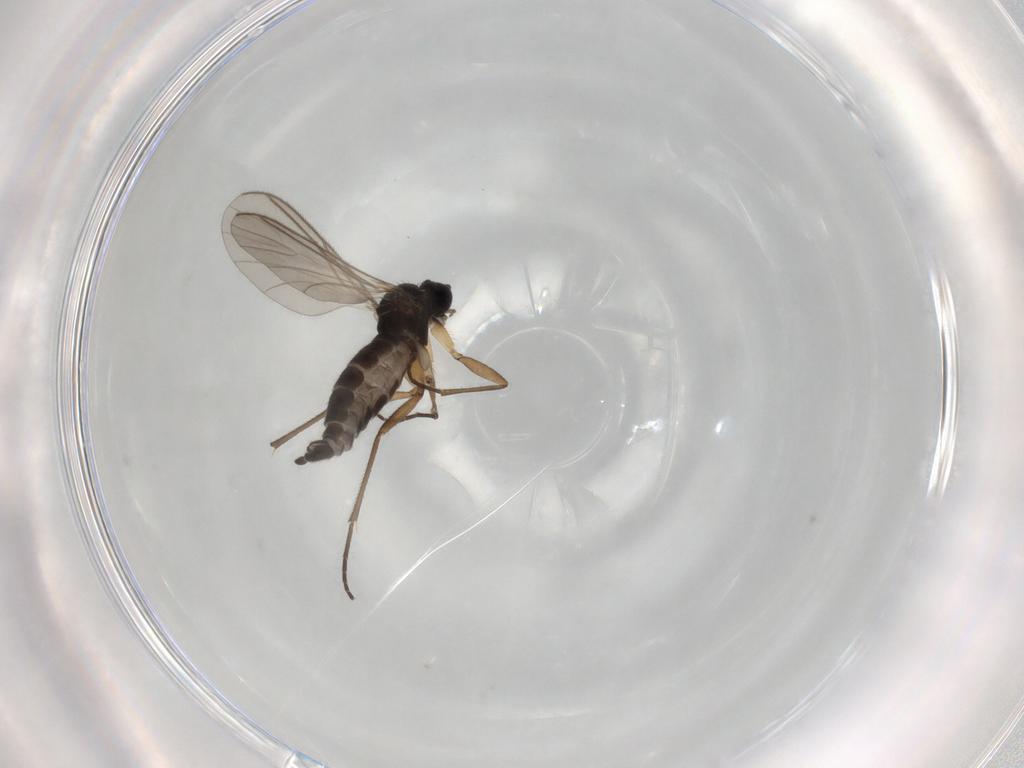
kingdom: Animalia
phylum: Arthropoda
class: Insecta
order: Diptera
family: Sciaridae
